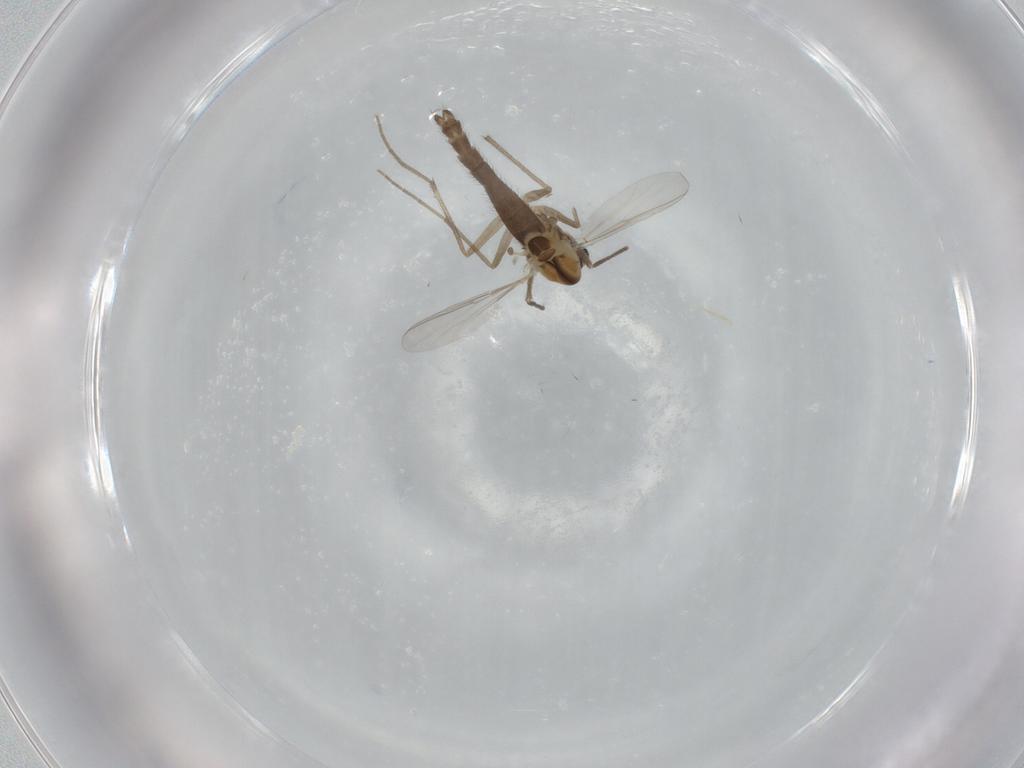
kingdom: Animalia
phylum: Arthropoda
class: Insecta
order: Diptera
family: Chironomidae
